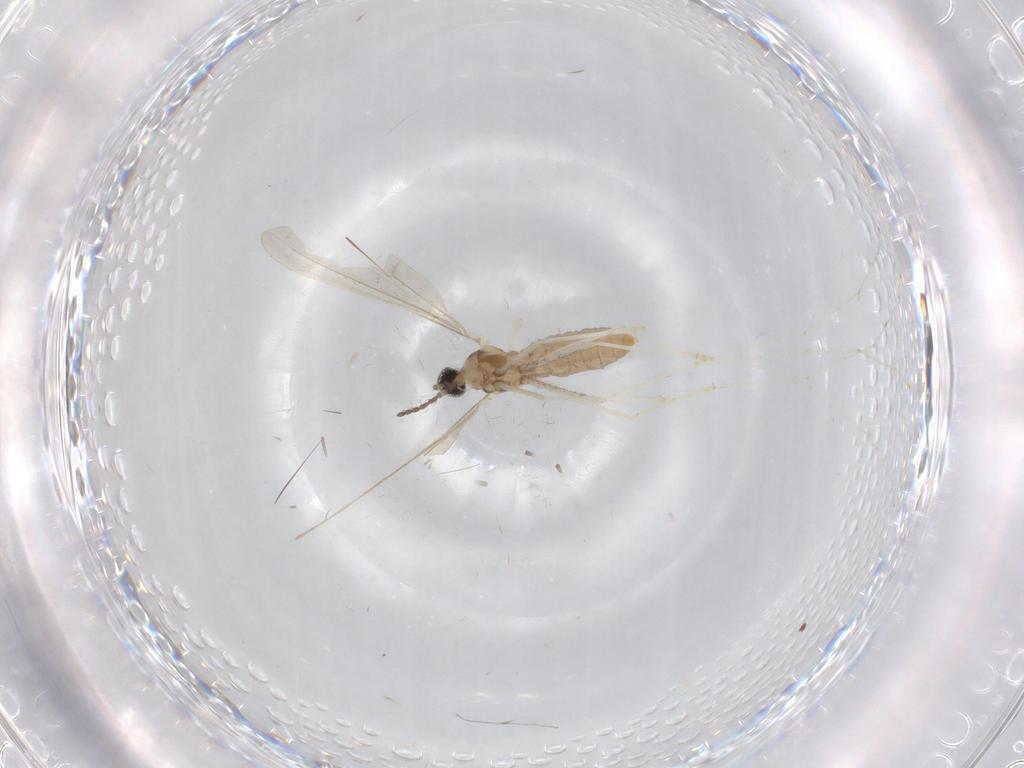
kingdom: Animalia
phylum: Arthropoda
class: Insecta
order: Diptera
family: Cecidomyiidae
